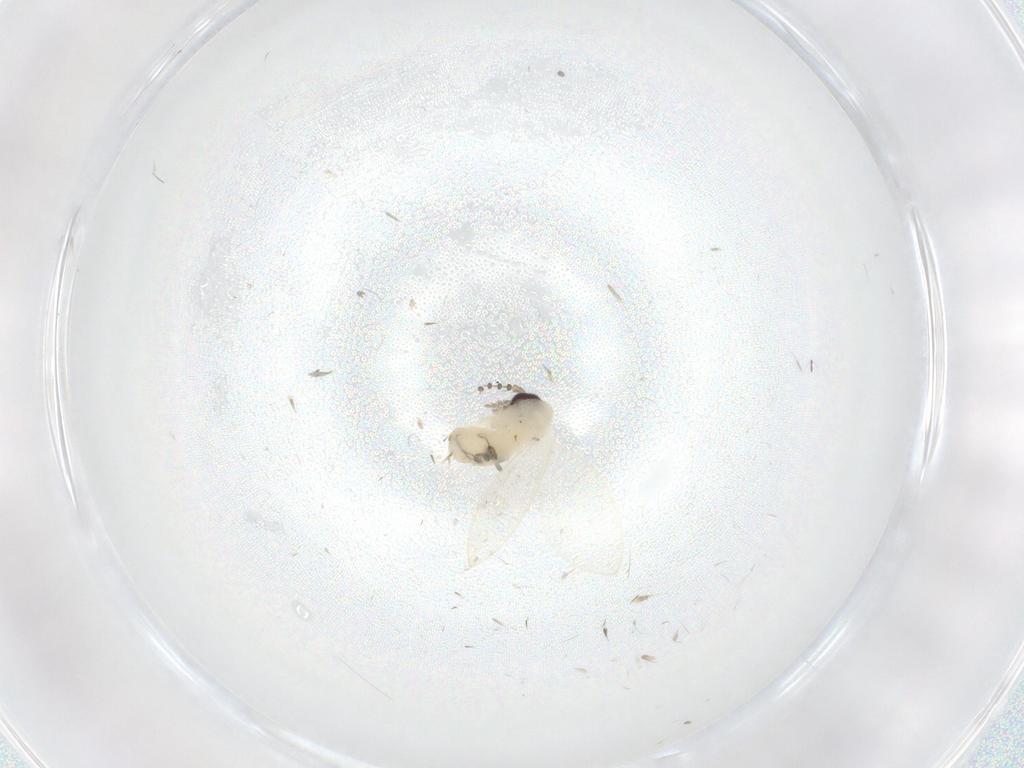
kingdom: Animalia
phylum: Arthropoda
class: Insecta
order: Diptera
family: Psychodidae
